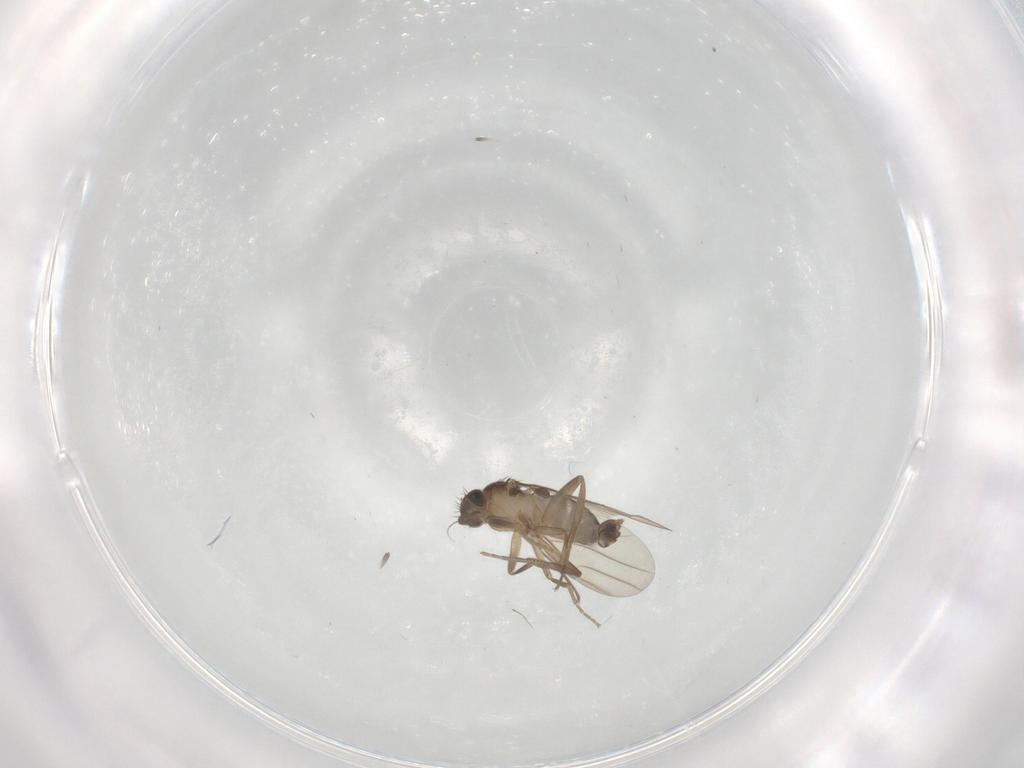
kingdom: Animalia
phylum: Arthropoda
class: Insecta
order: Diptera
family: Phoridae
